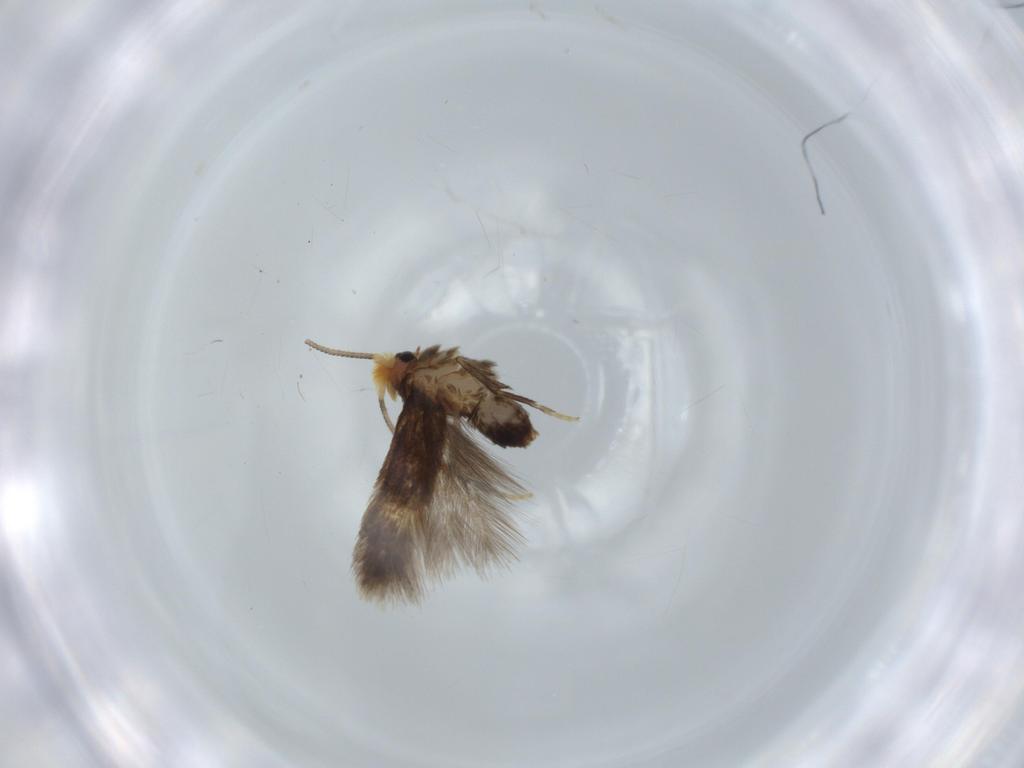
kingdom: Animalia
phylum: Arthropoda
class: Insecta
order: Lepidoptera
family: Nepticulidae
